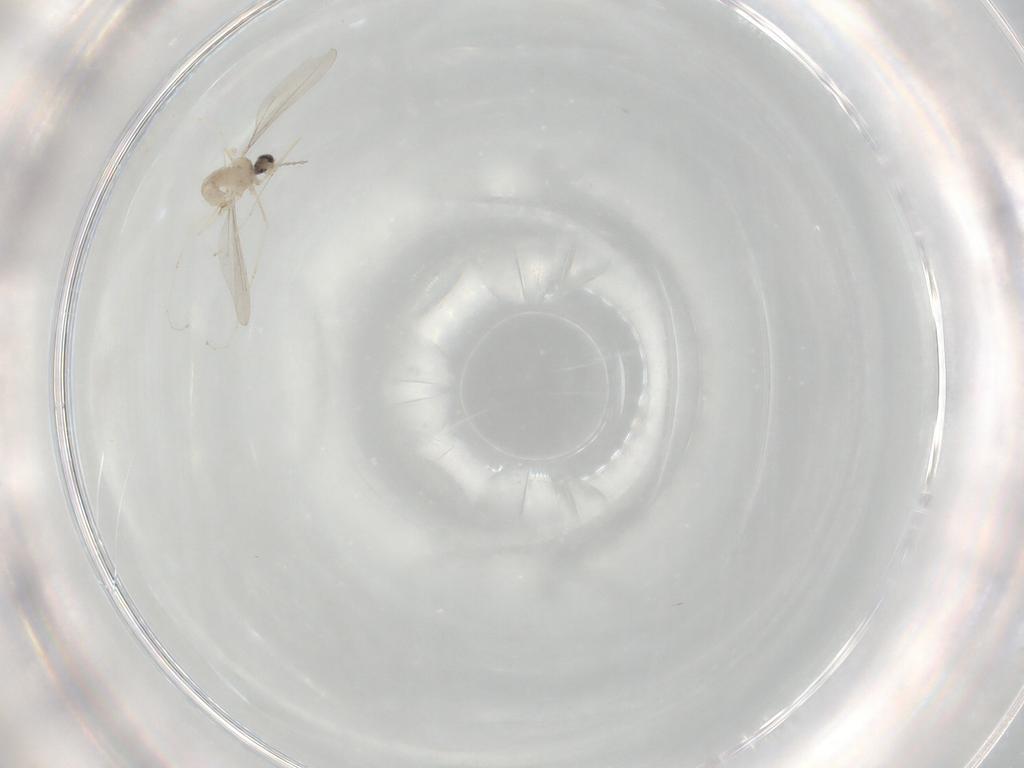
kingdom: Animalia
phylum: Arthropoda
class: Insecta
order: Diptera
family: Cecidomyiidae
